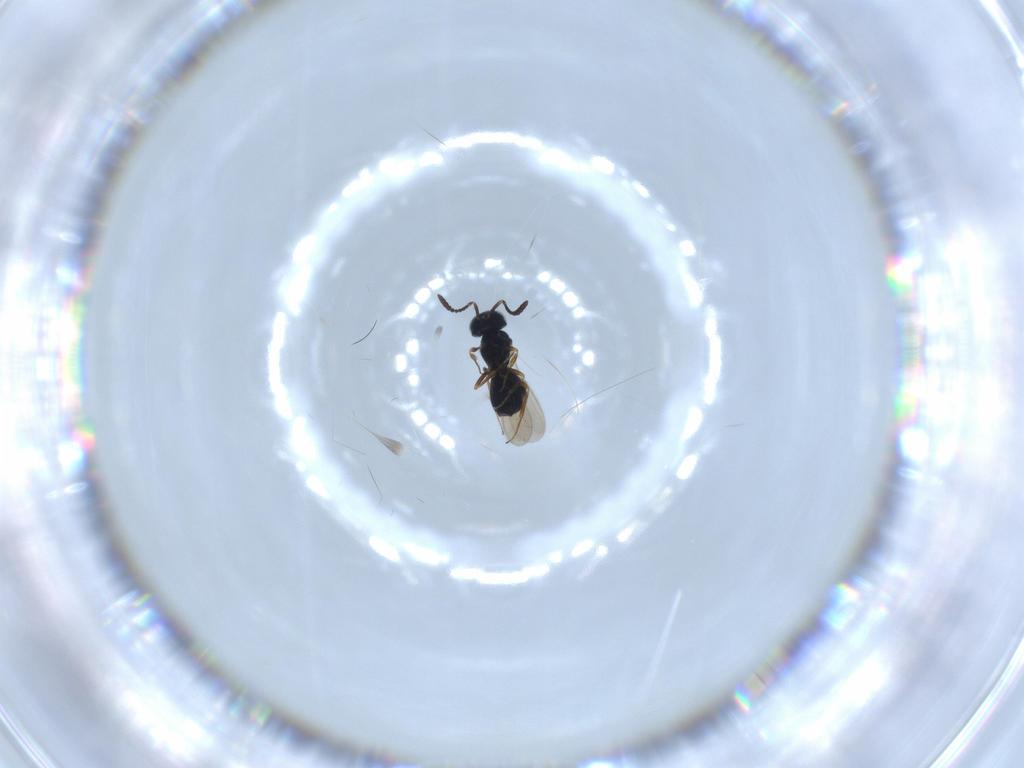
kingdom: Animalia
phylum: Arthropoda
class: Insecta
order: Hymenoptera
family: Scelionidae
